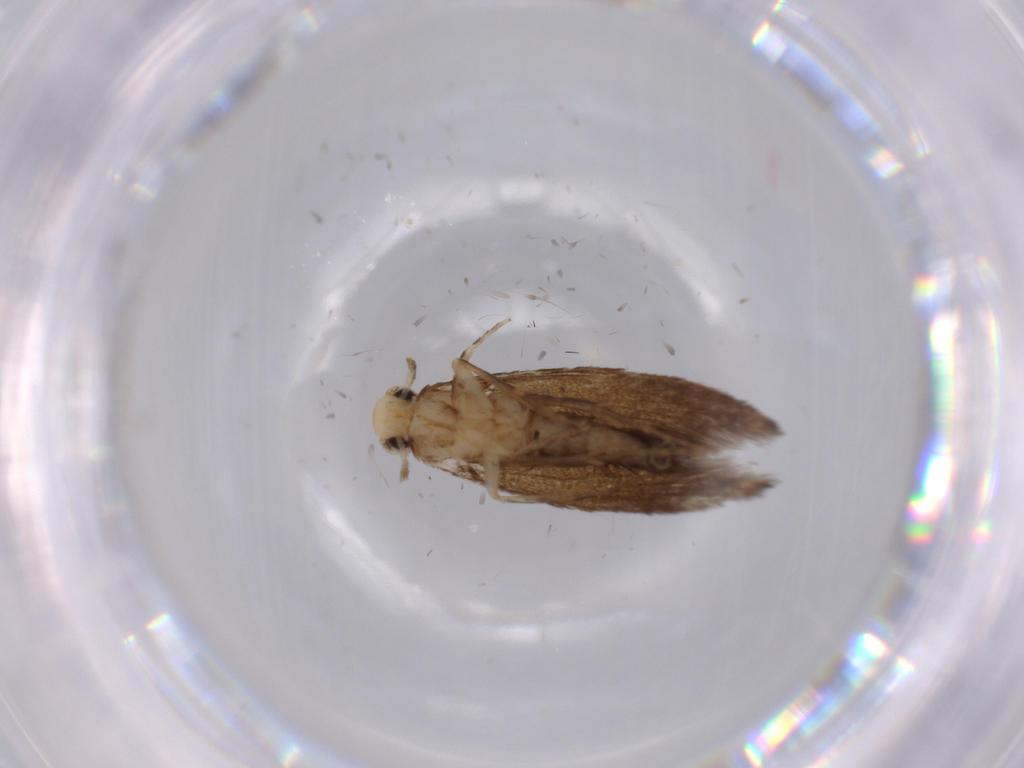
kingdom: Animalia
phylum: Arthropoda
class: Insecta
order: Lepidoptera
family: Tineidae
